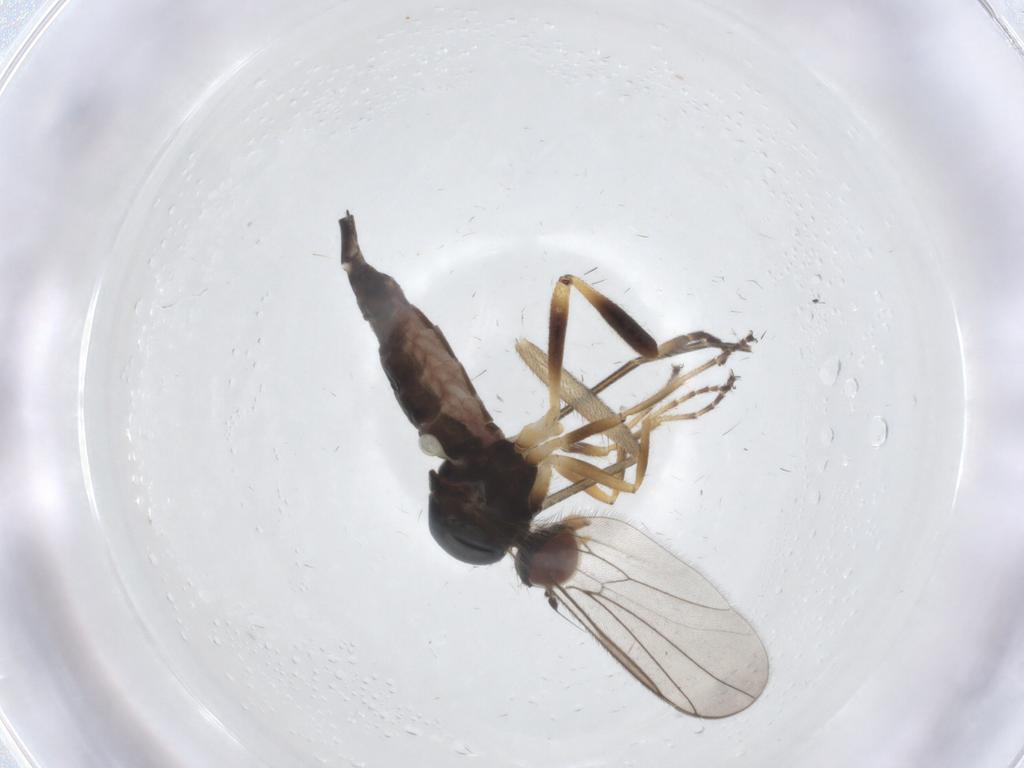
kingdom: Animalia
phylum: Arthropoda
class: Insecta
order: Diptera
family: Hybotidae
